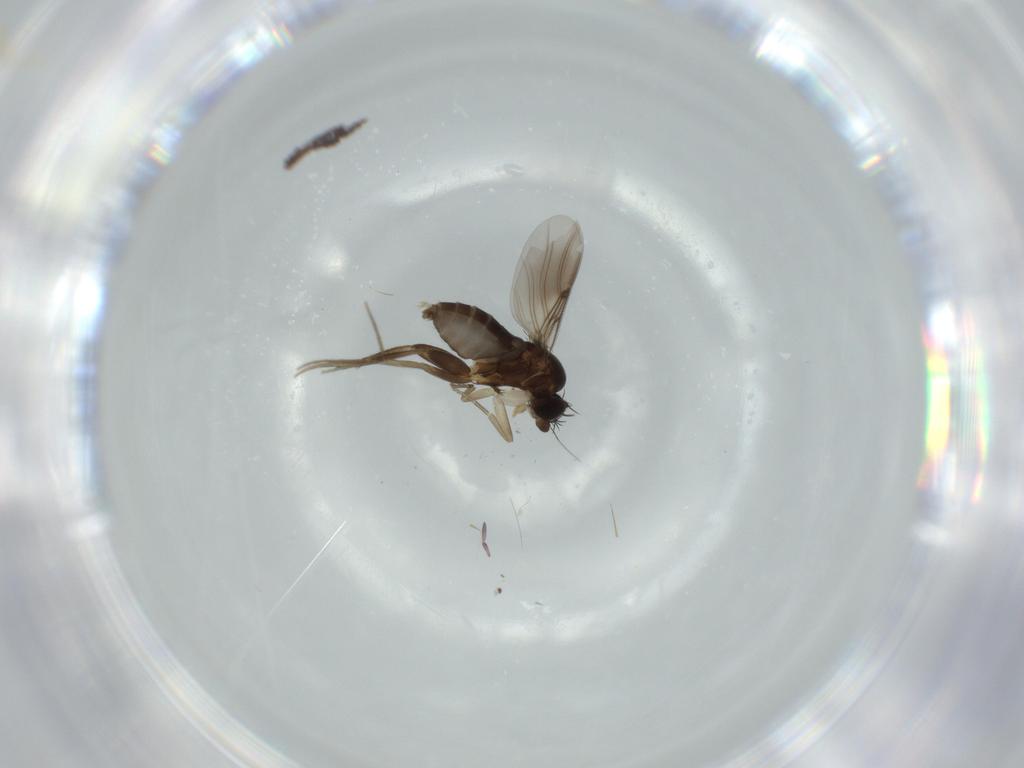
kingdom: Animalia
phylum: Arthropoda
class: Insecta
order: Diptera
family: Phoridae
